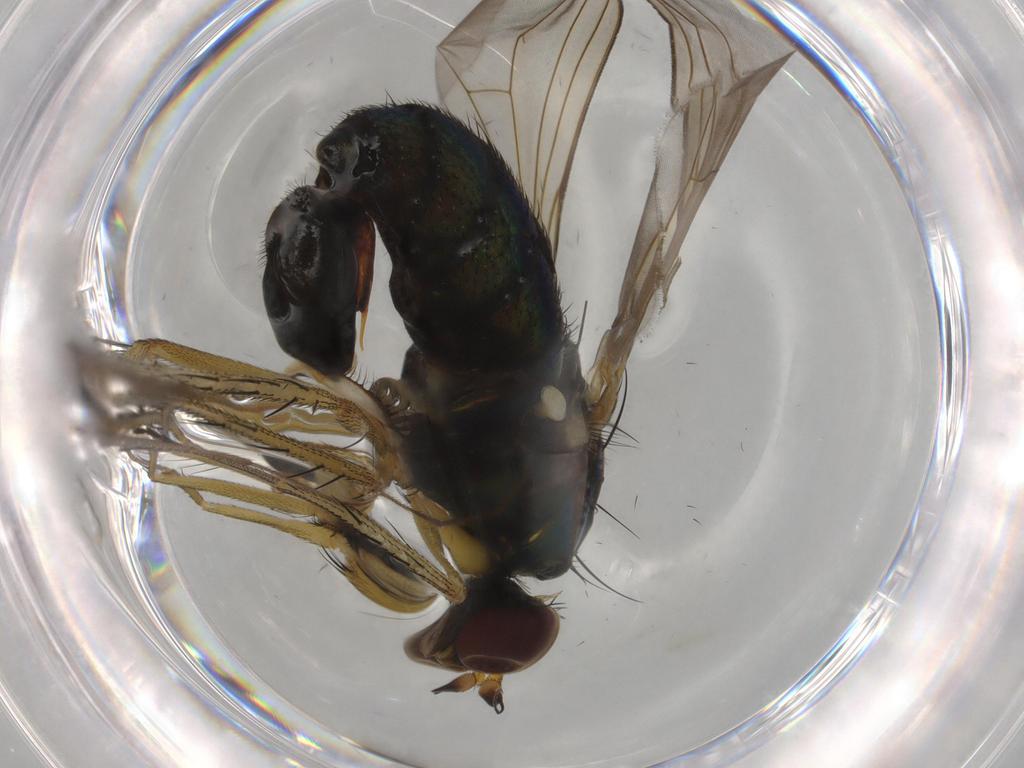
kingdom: Animalia
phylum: Arthropoda
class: Insecta
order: Diptera
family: Dolichopodidae
